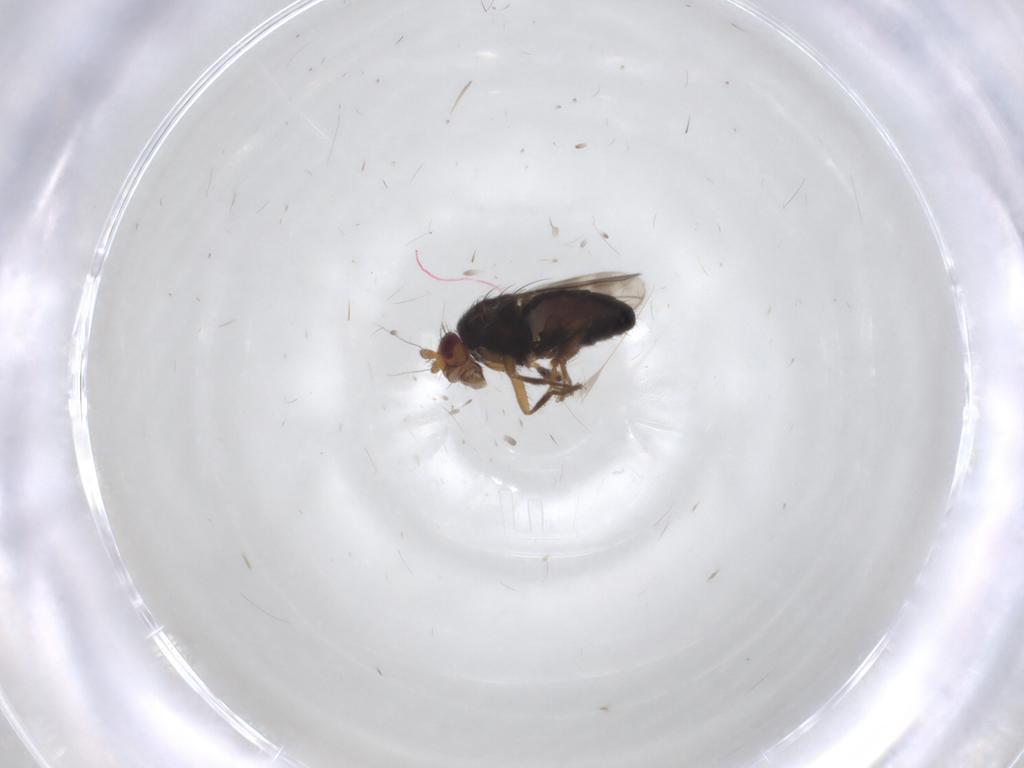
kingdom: Animalia
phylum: Arthropoda
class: Insecta
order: Diptera
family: Sphaeroceridae
